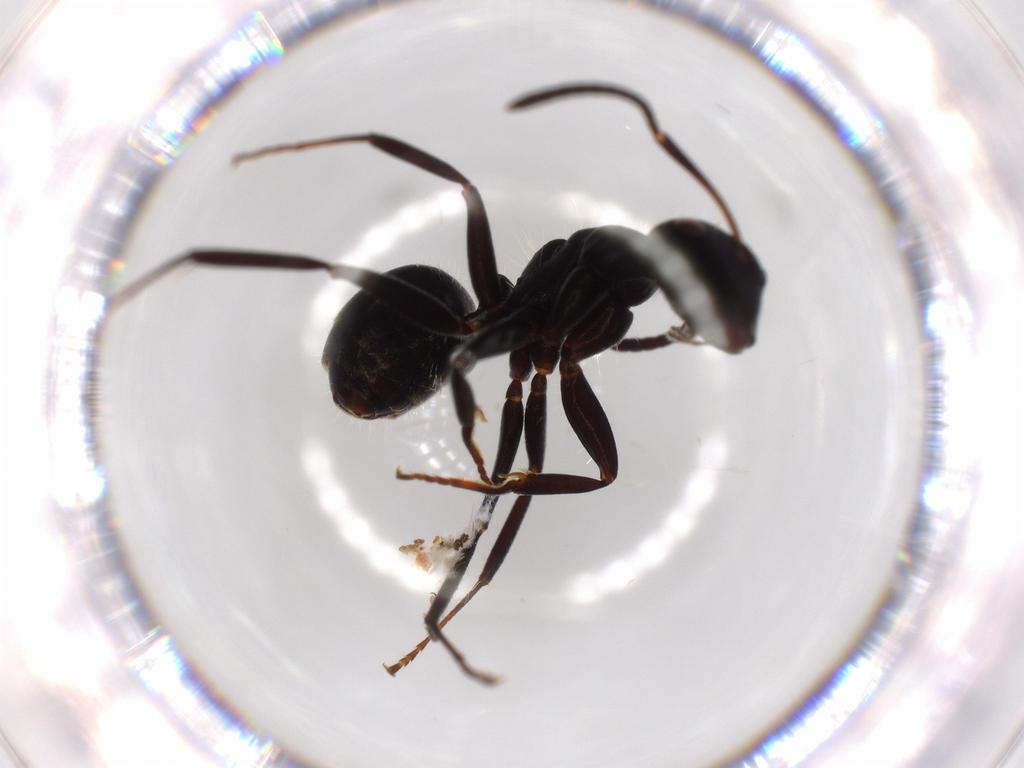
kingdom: Animalia
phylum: Arthropoda
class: Insecta
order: Hymenoptera
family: Formicidae
